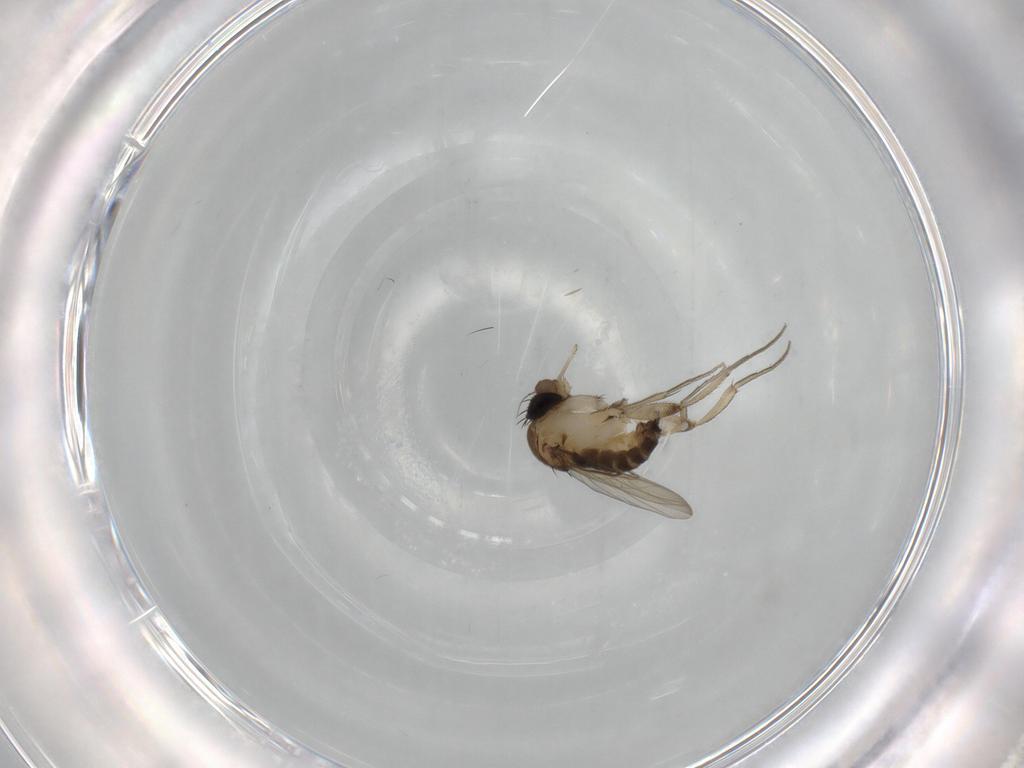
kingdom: Animalia
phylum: Arthropoda
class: Insecta
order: Diptera
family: Phoridae
